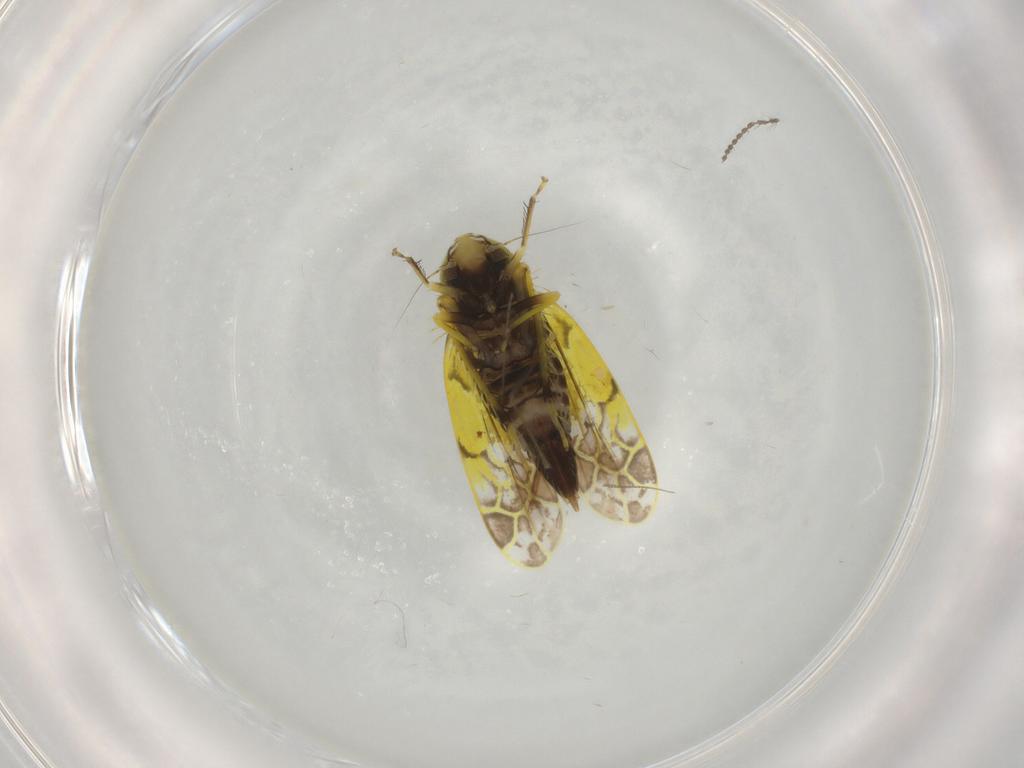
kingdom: Animalia
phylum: Arthropoda
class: Insecta
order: Hemiptera
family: Cicadellidae
